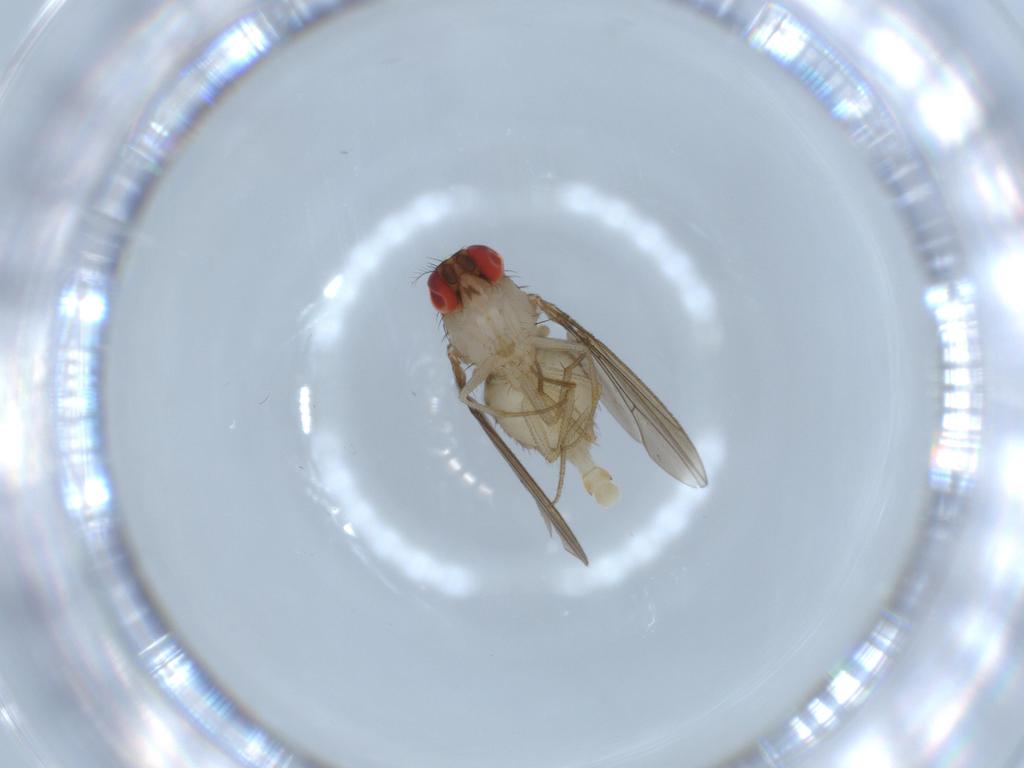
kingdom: Animalia
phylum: Arthropoda
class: Insecta
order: Diptera
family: Drosophilidae
